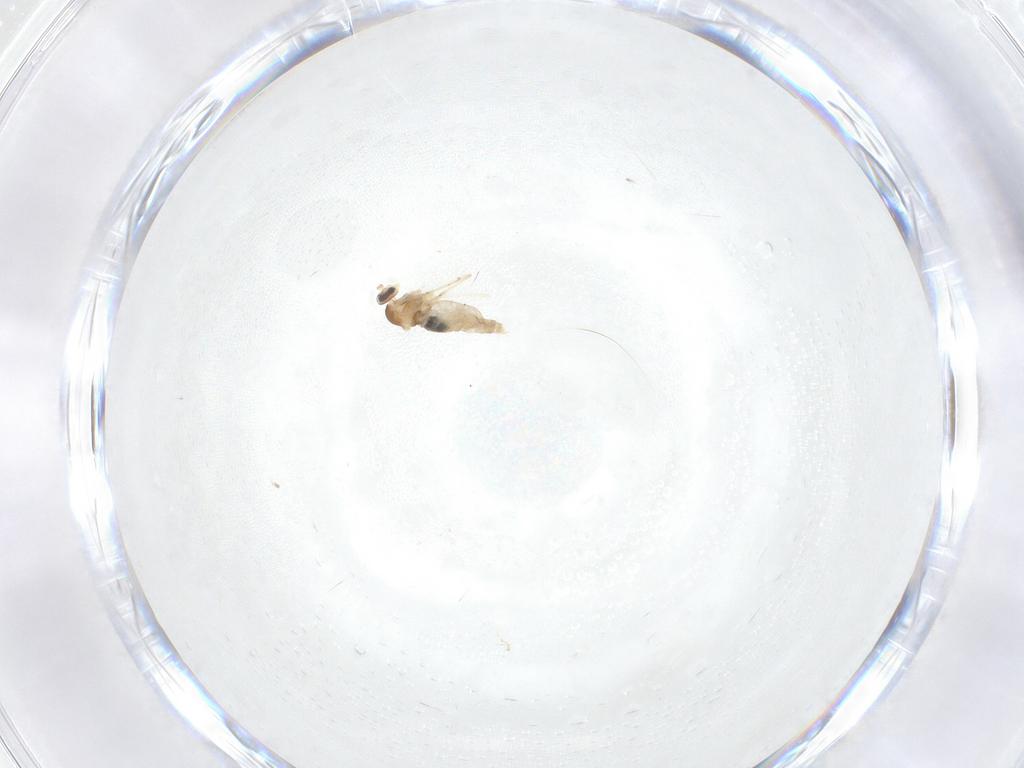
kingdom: Animalia
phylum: Arthropoda
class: Insecta
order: Diptera
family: Cecidomyiidae
